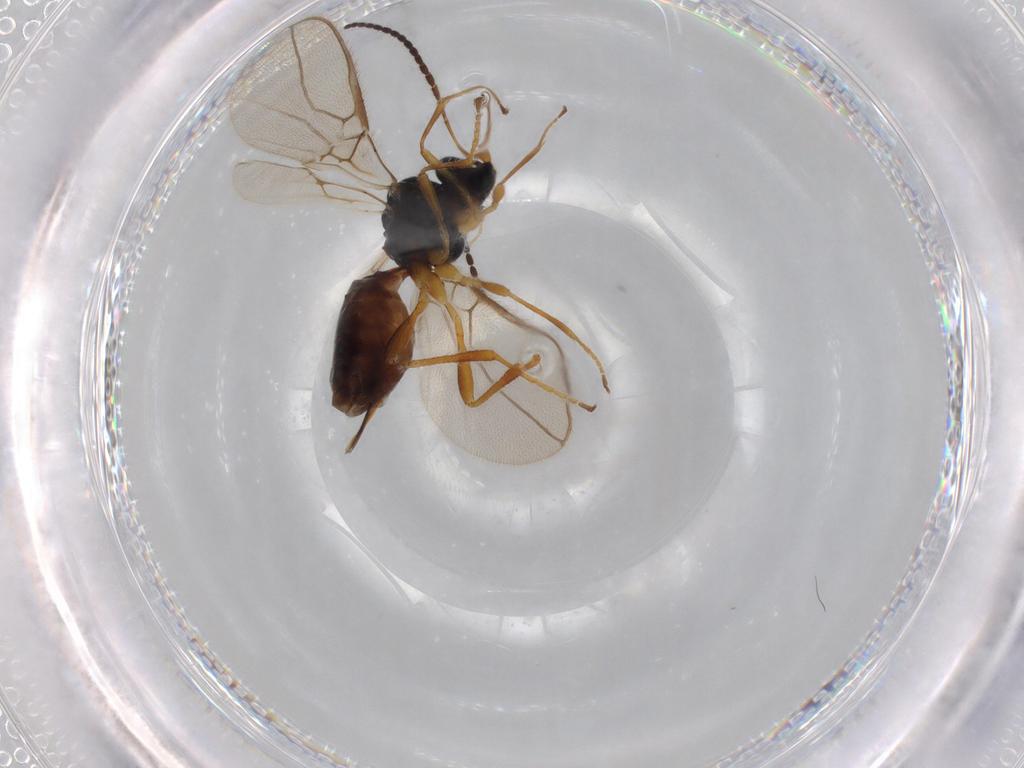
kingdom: Animalia
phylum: Arthropoda
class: Insecta
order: Hymenoptera
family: Braconidae
